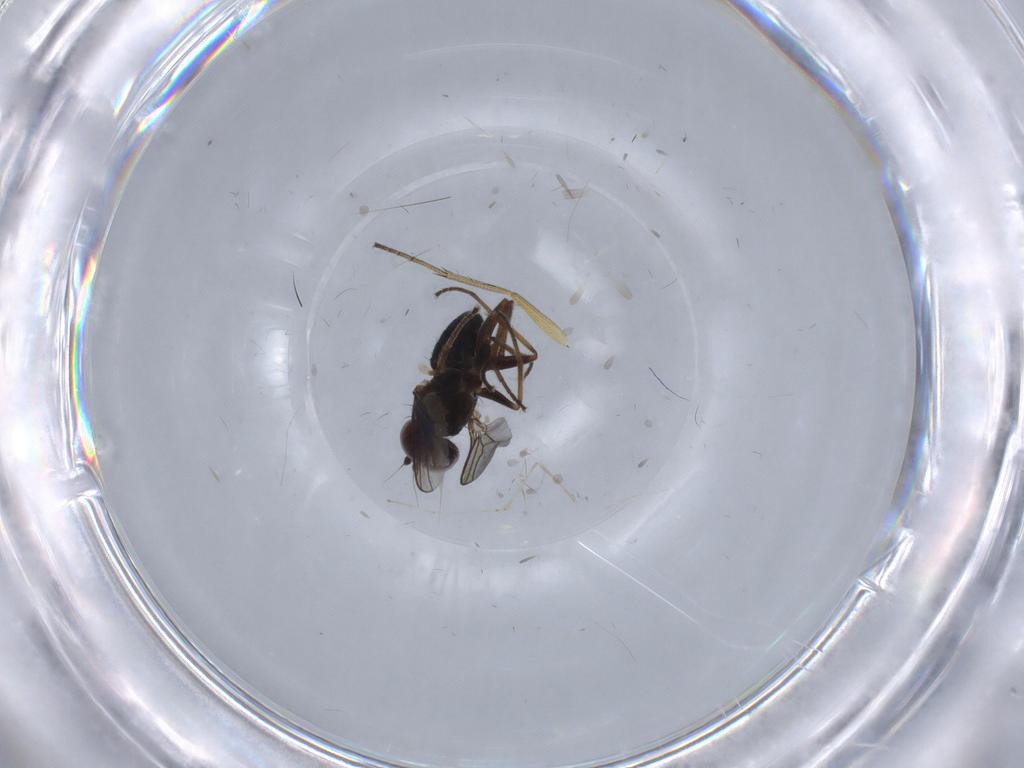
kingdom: Animalia
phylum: Arthropoda
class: Insecta
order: Diptera
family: Dolichopodidae
